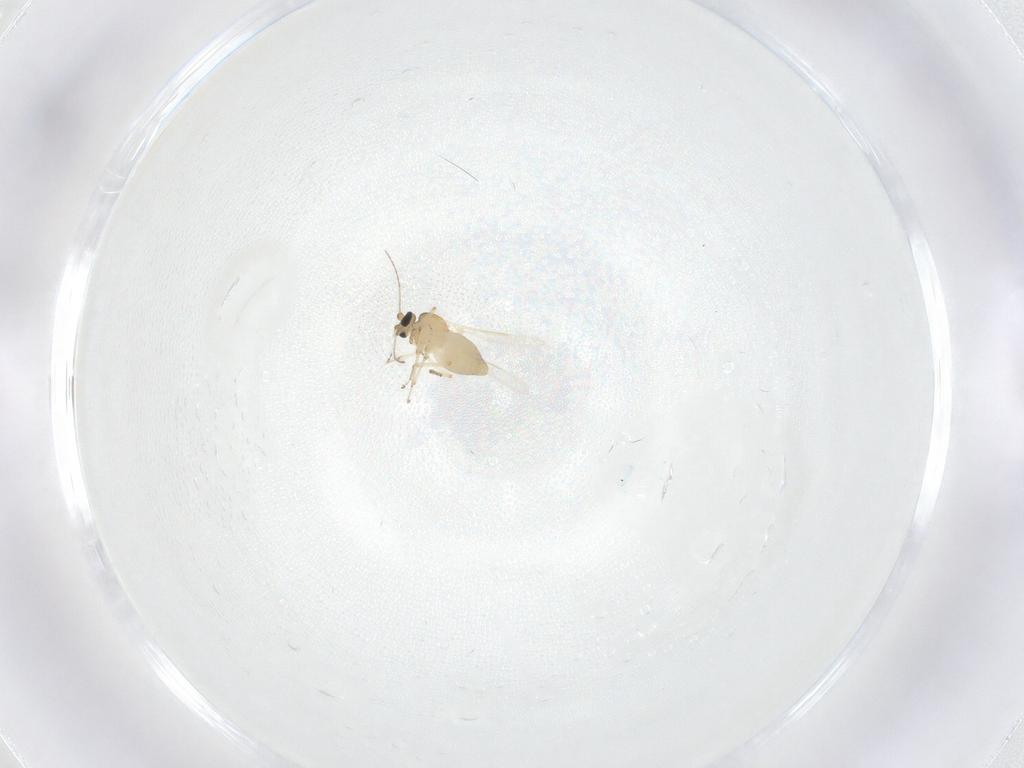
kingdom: Animalia
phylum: Arthropoda
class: Insecta
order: Diptera
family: Ceratopogonidae
